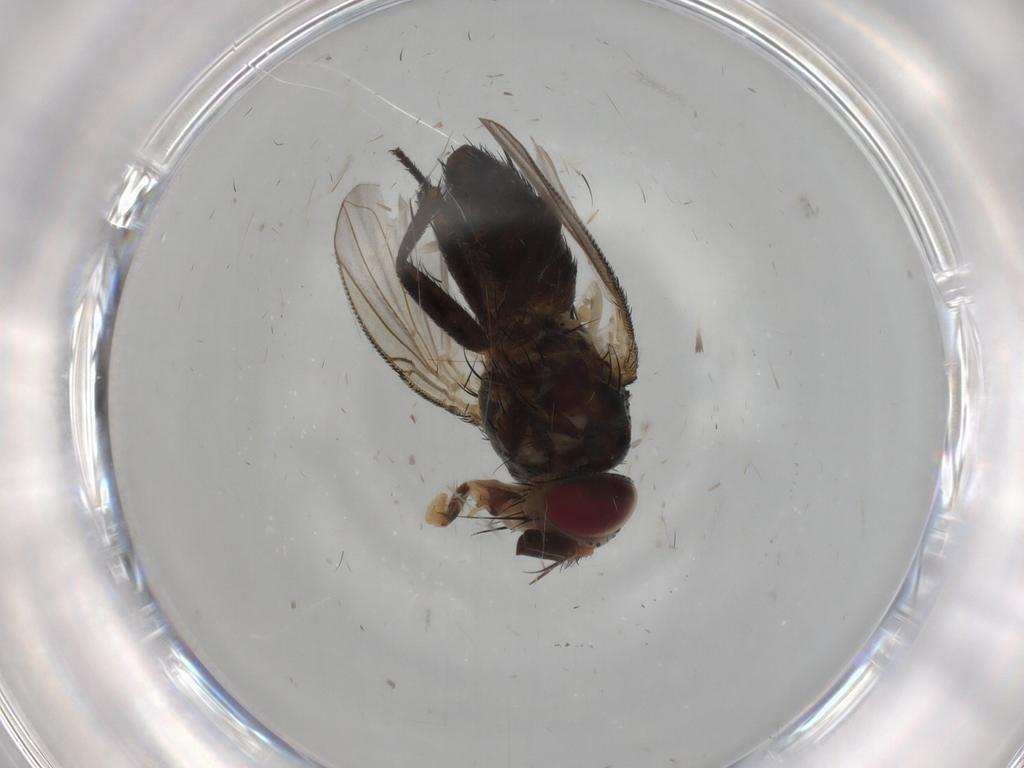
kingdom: Animalia
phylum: Arthropoda
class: Insecta
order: Diptera
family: Tachinidae
